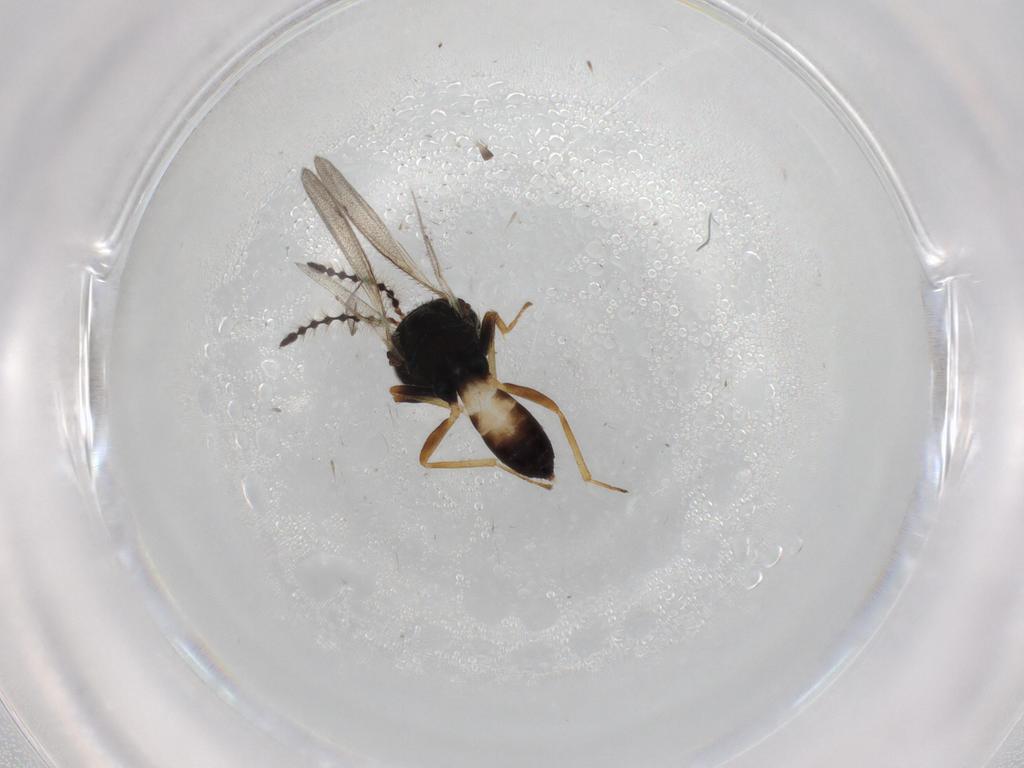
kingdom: Animalia
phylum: Arthropoda
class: Insecta
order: Hymenoptera
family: Pteromalidae
